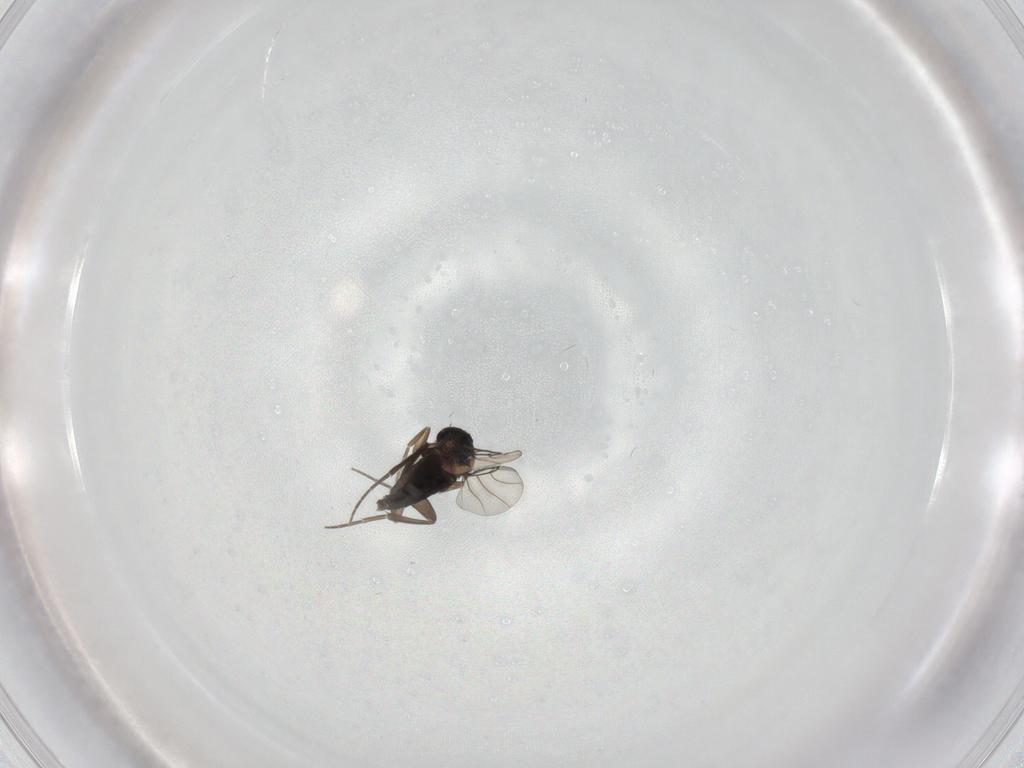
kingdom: Animalia
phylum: Arthropoda
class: Insecta
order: Diptera
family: Phoridae
